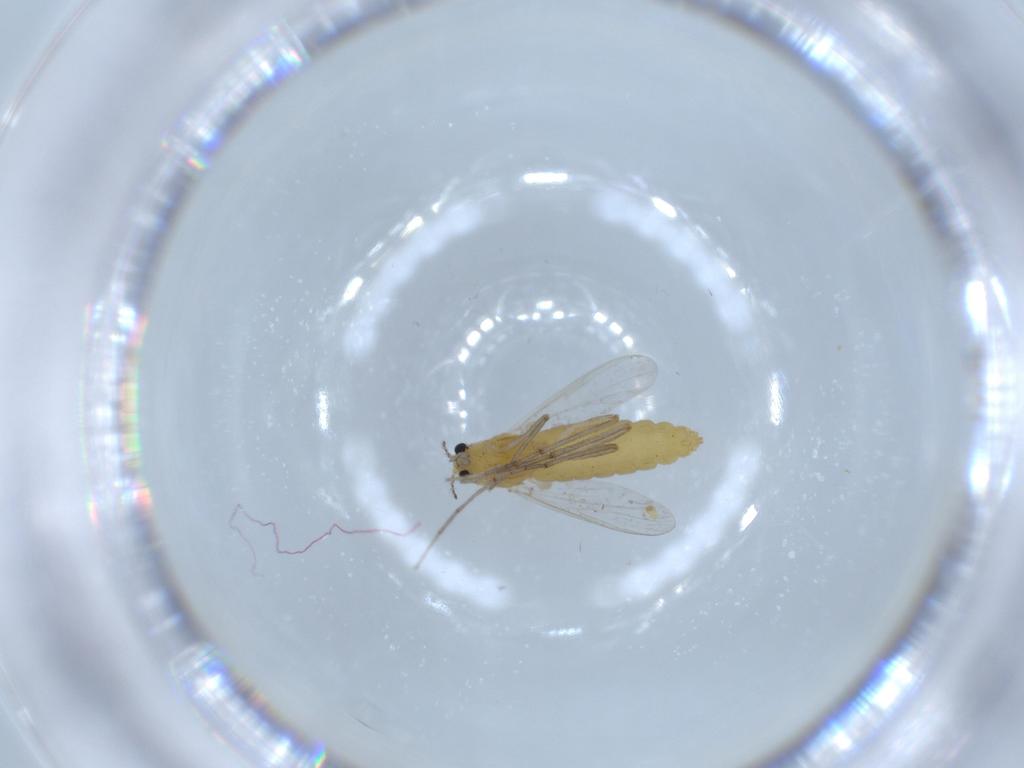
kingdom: Animalia
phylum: Arthropoda
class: Insecta
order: Diptera
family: Chironomidae
